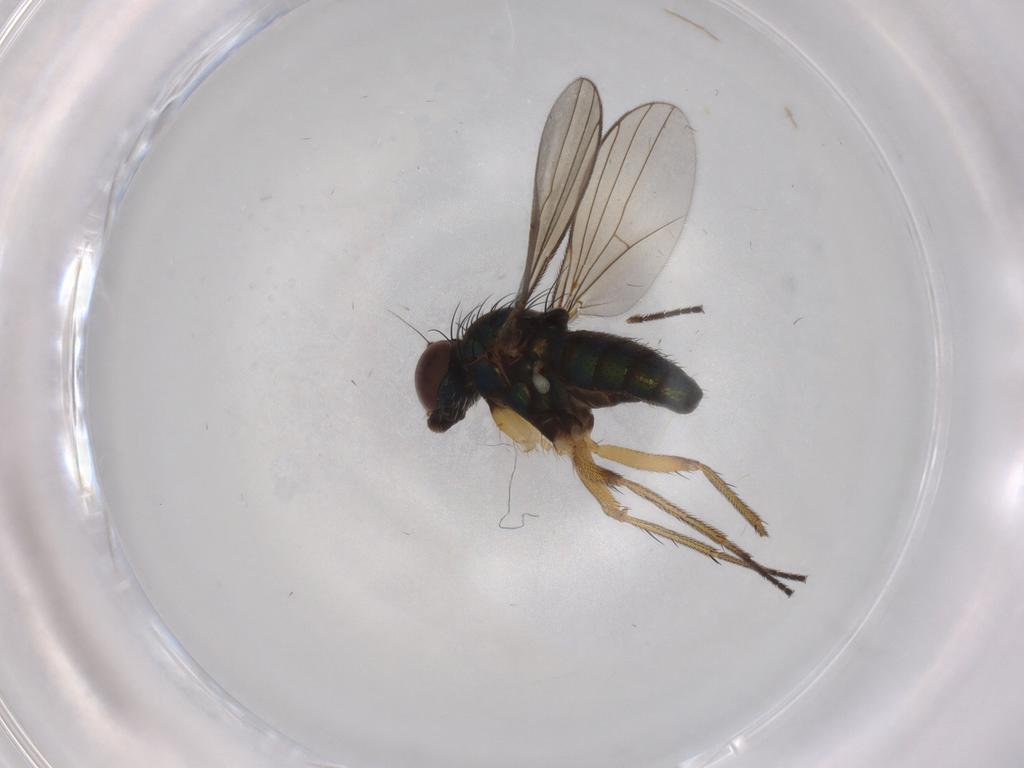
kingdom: Animalia
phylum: Arthropoda
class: Insecta
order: Diptera
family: Dolichopodidae
